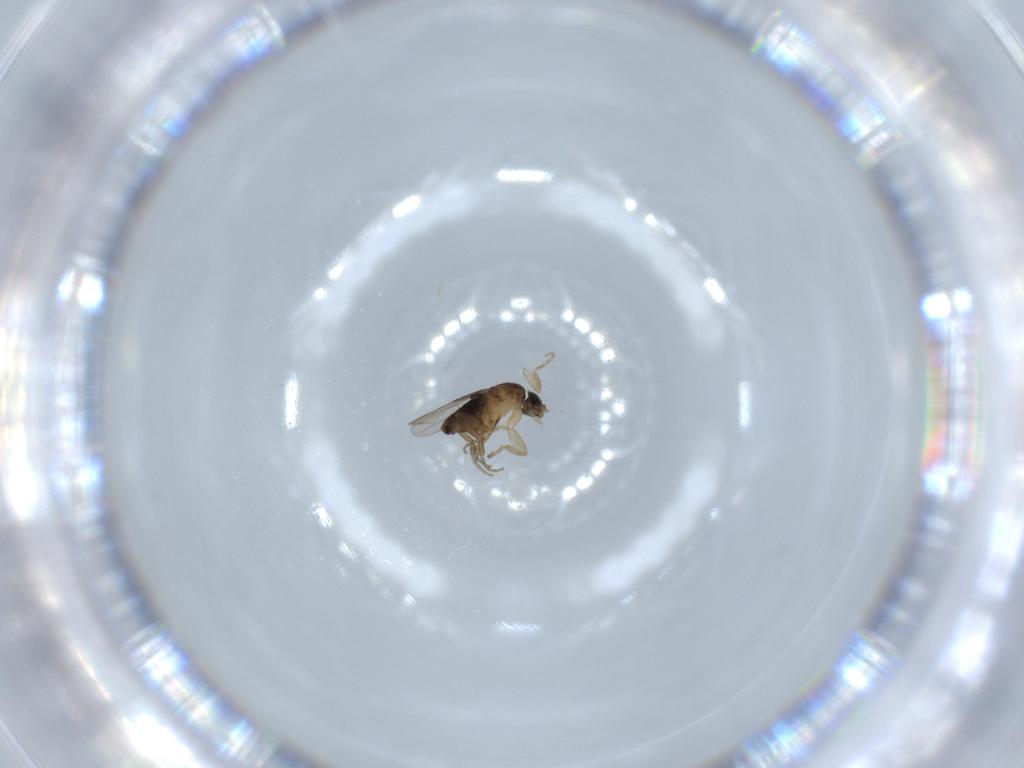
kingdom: Animalia
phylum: Arthropoda
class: Insecta
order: Diptera
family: Phoridae
